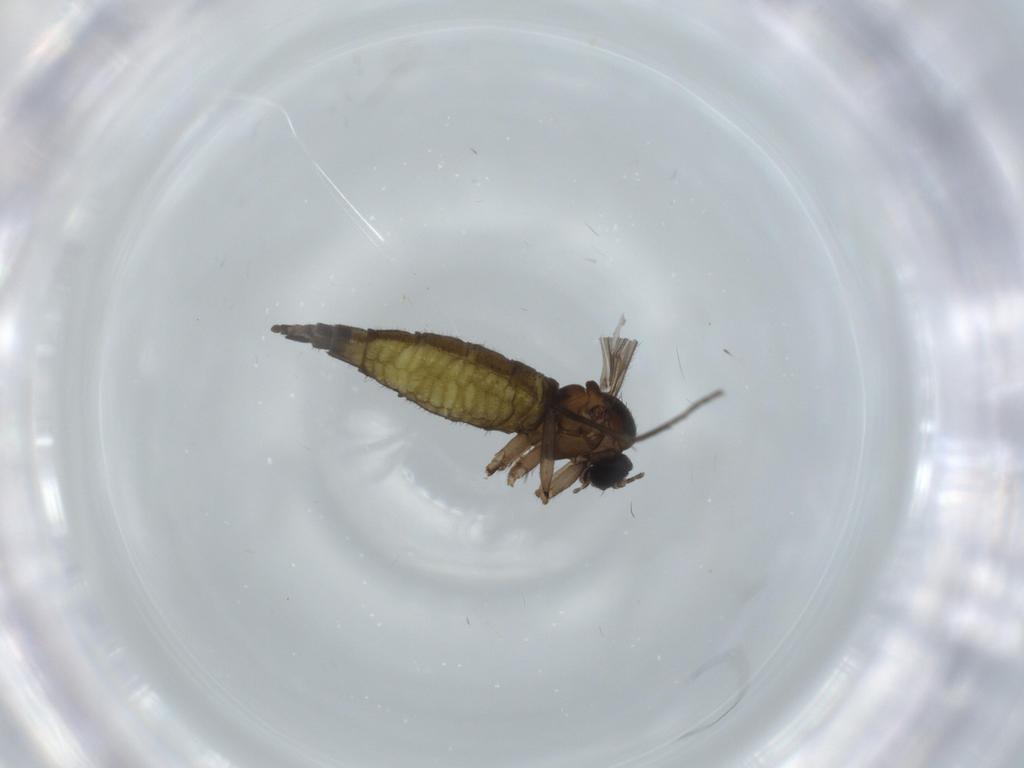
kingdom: Animalia
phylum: Arthropoda
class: Insecta
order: Diptera
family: Sciaridae
